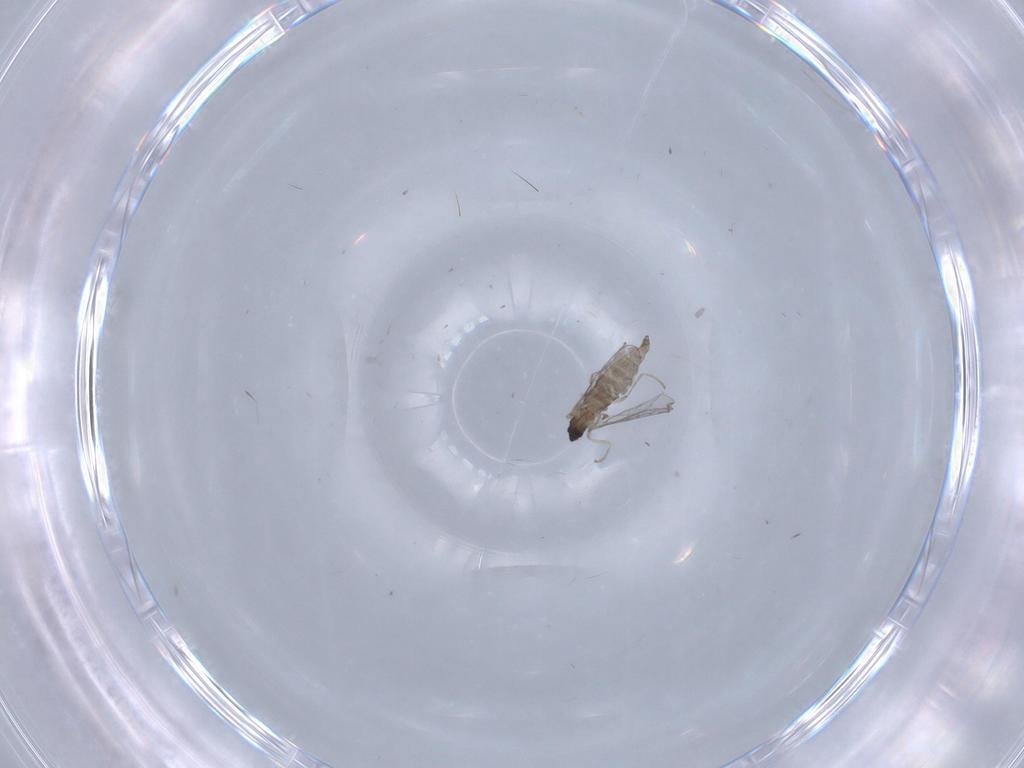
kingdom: Animalia
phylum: Arthropoda
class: Insecta
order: Diptera
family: Cecidomyiidae
